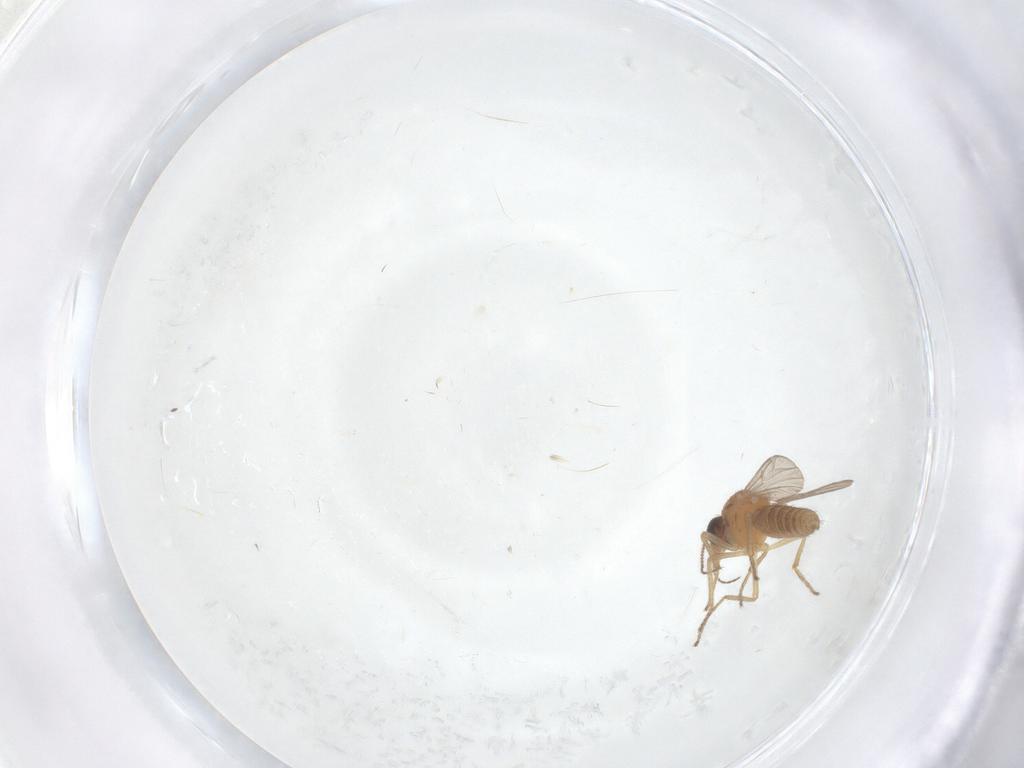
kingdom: Animalia
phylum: Arthropoda
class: Insecta
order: Diptera
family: Ceratopogonidae
